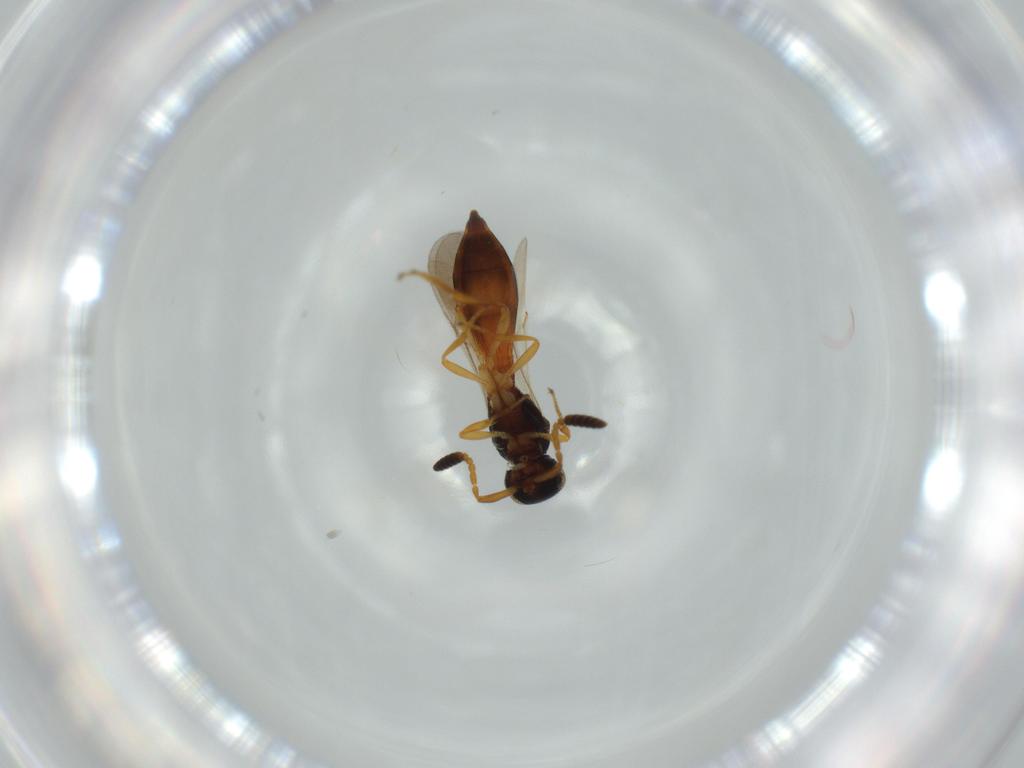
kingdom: Animalia
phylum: Arthropoda
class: Insecta
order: Hymenoptera
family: Scelionidae
